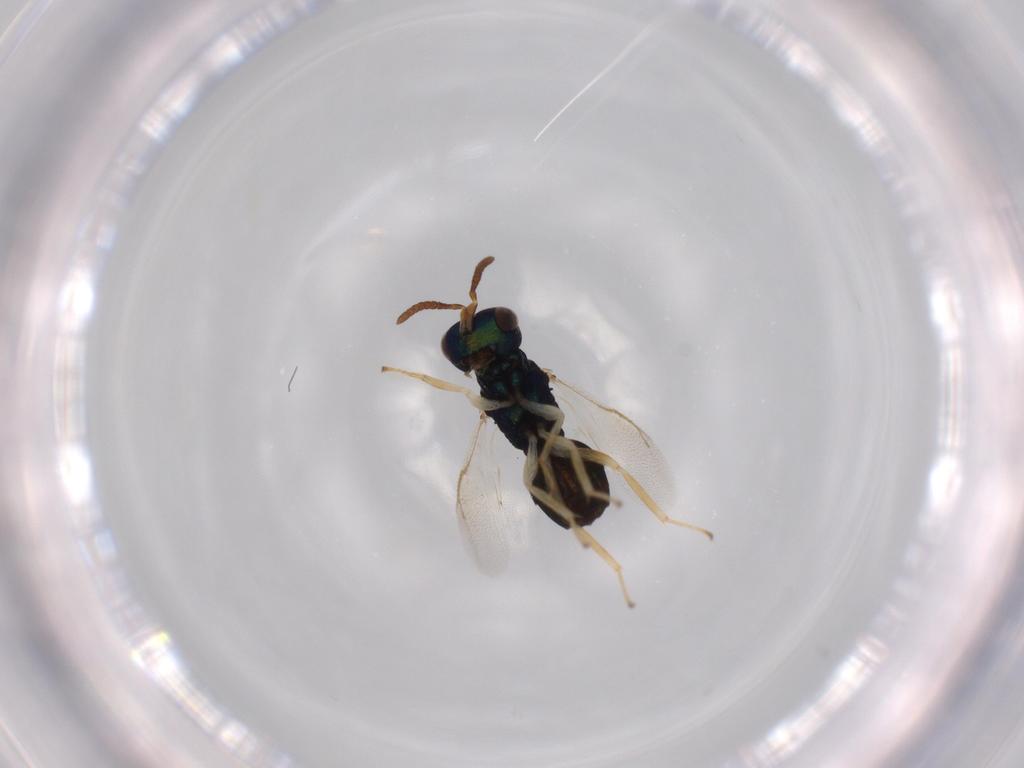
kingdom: Animalia
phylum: Arthropoda
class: Insecta
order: Hymenoptera
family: Pteromalidae
